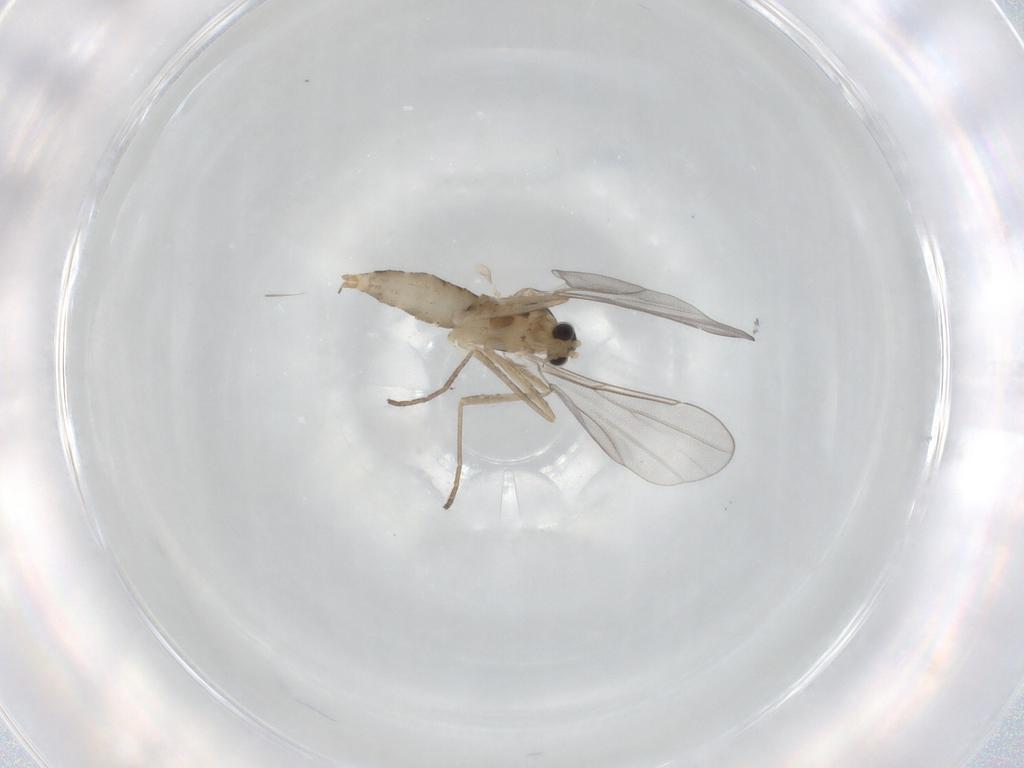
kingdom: Animalia
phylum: Arthropoda
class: Insecta
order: Diptera
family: Cecidomyiidae
